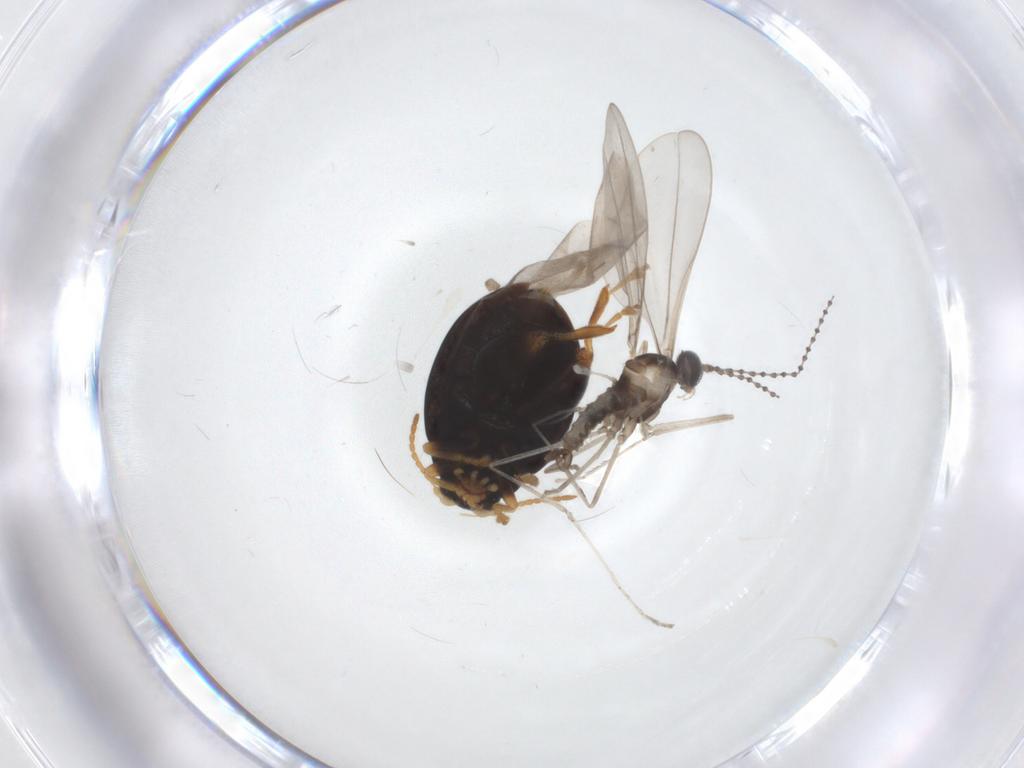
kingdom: Animalia
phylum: Arthropoda
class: Insecta
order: Diptera
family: Cecidomyiidae
